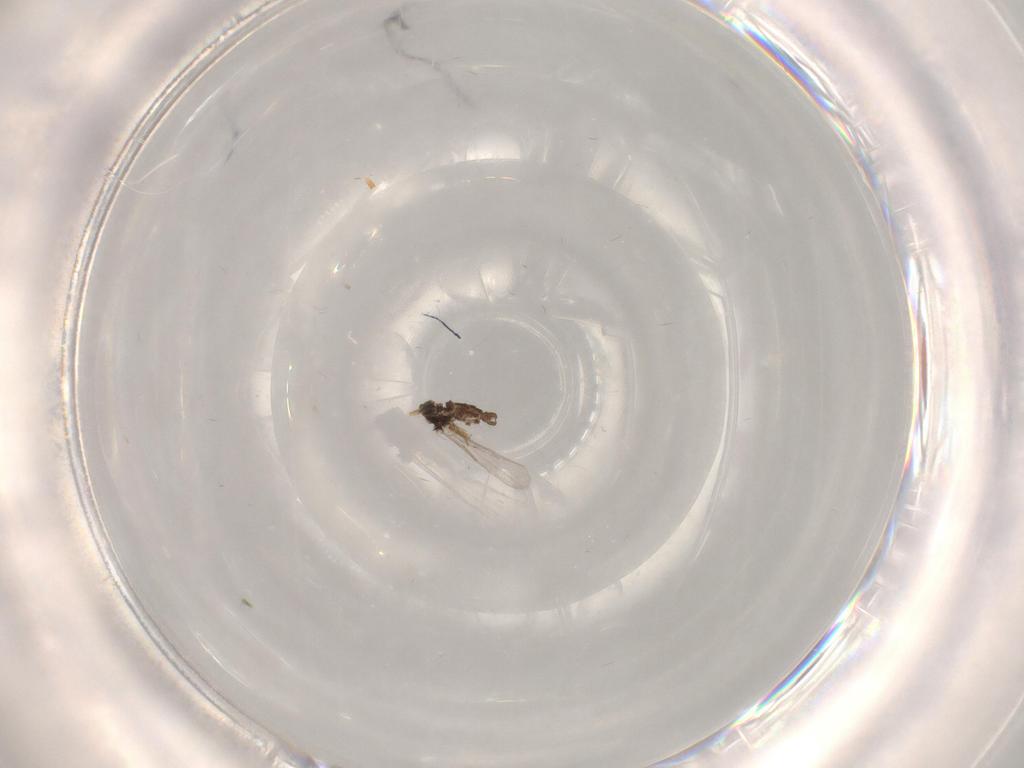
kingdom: Animalia
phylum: Arthropoda
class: Insecta
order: Diptera
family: Ceratopogonidae
